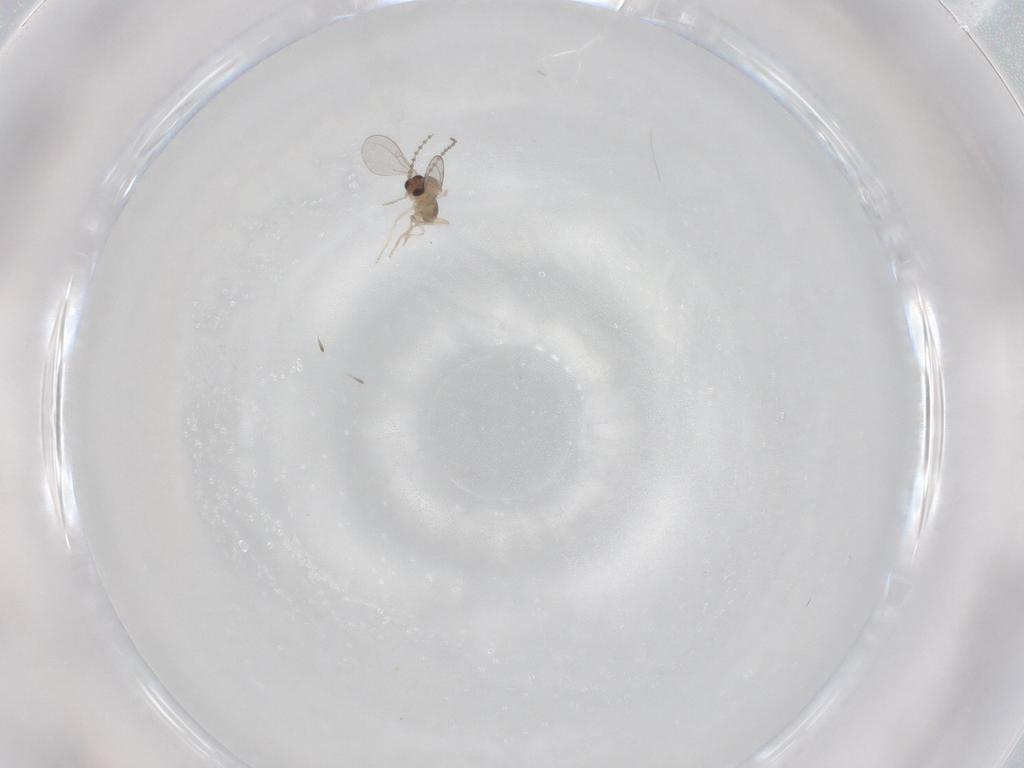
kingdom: Animalia
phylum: Arthropoda
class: Insecta
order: Diptera
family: Cecidomyiidae
